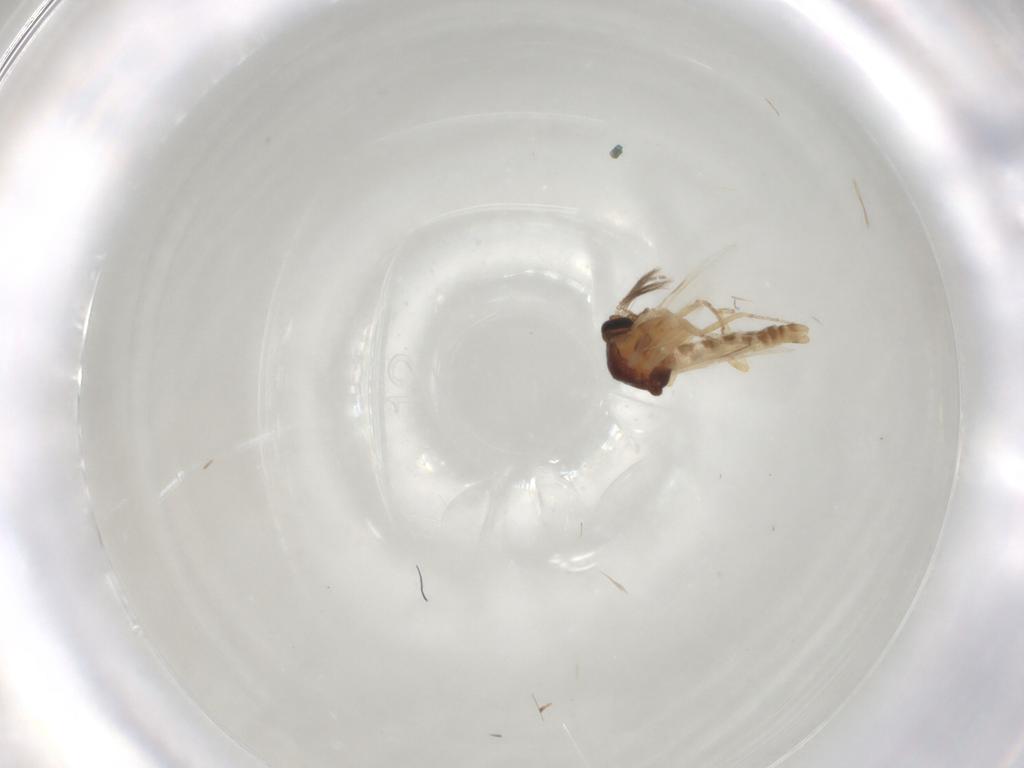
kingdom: Animalia
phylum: Arthropoda
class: Insecta
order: Diptera
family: Ceratopogonidae
